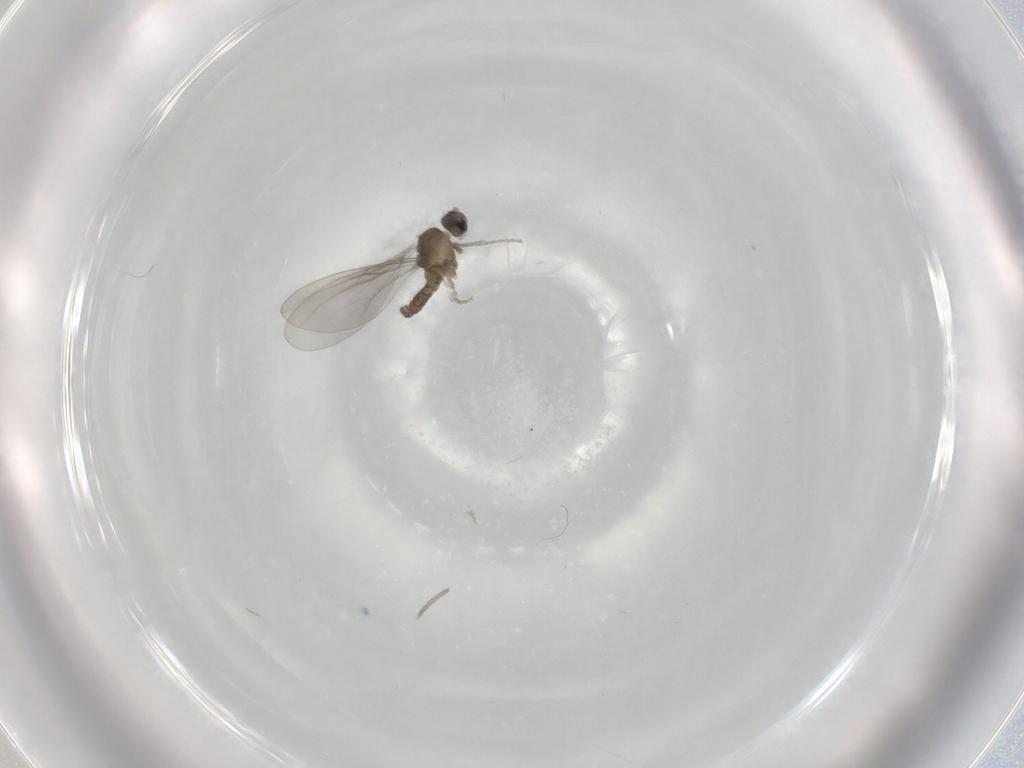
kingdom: Animalia
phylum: Arthropoda
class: Insecta
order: Diptera
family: Cecidomyiidae
